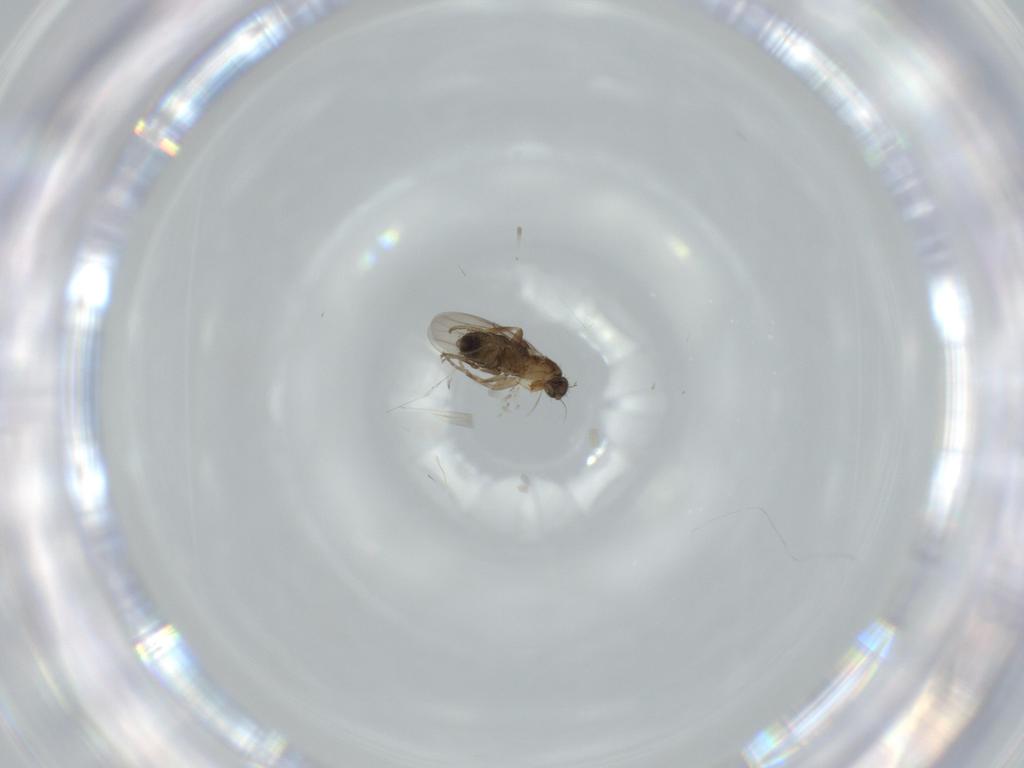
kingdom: Animalia
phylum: Arthropoda
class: Insecta
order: Diptera
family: Phoridae
